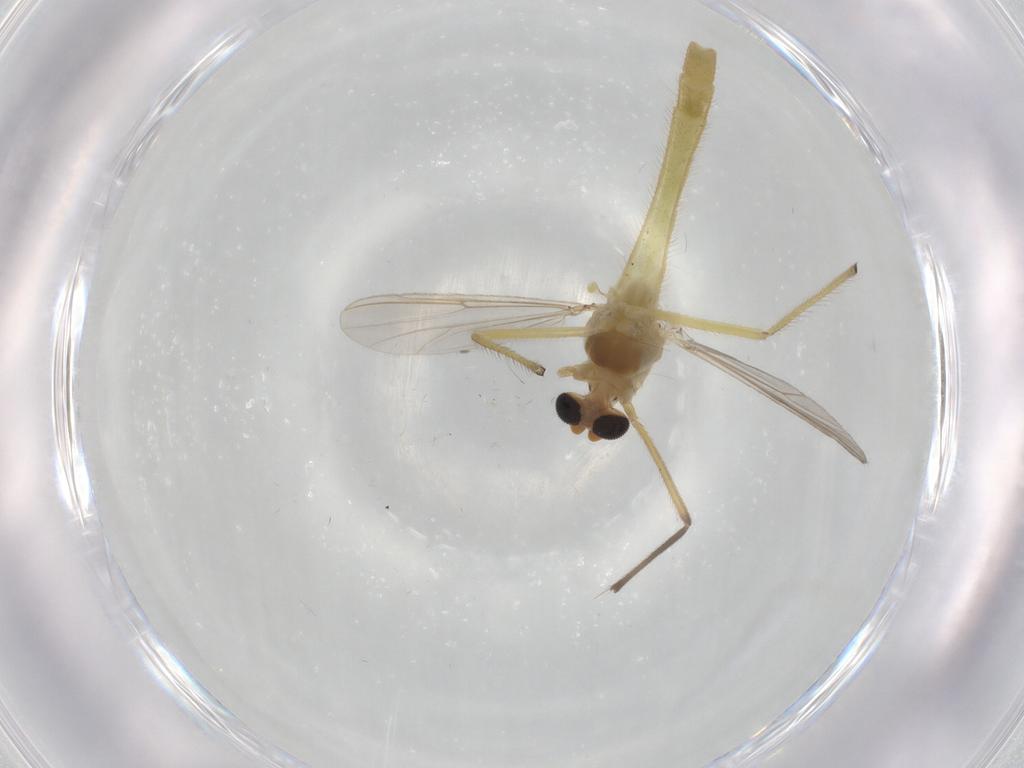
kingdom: Animalia
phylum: Arthropoda
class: Insecta
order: Diptera
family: Chironomidae
